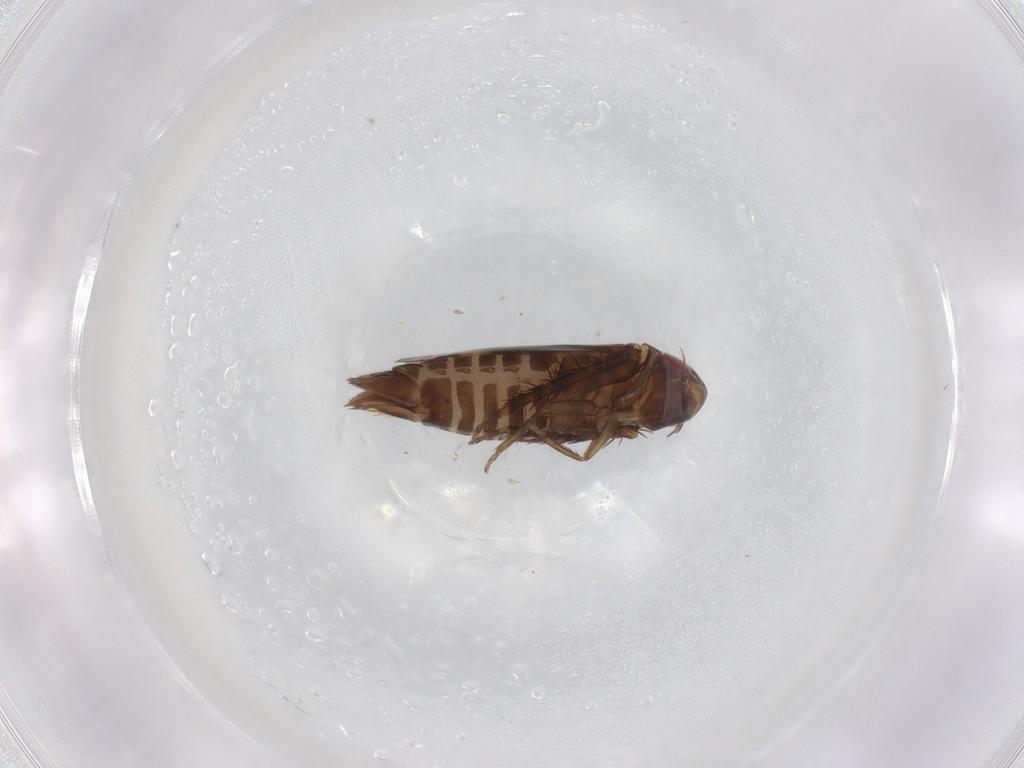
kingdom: Animalia
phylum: Arthropoda
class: Insecta
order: Hemiptera
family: Cicadellidae
